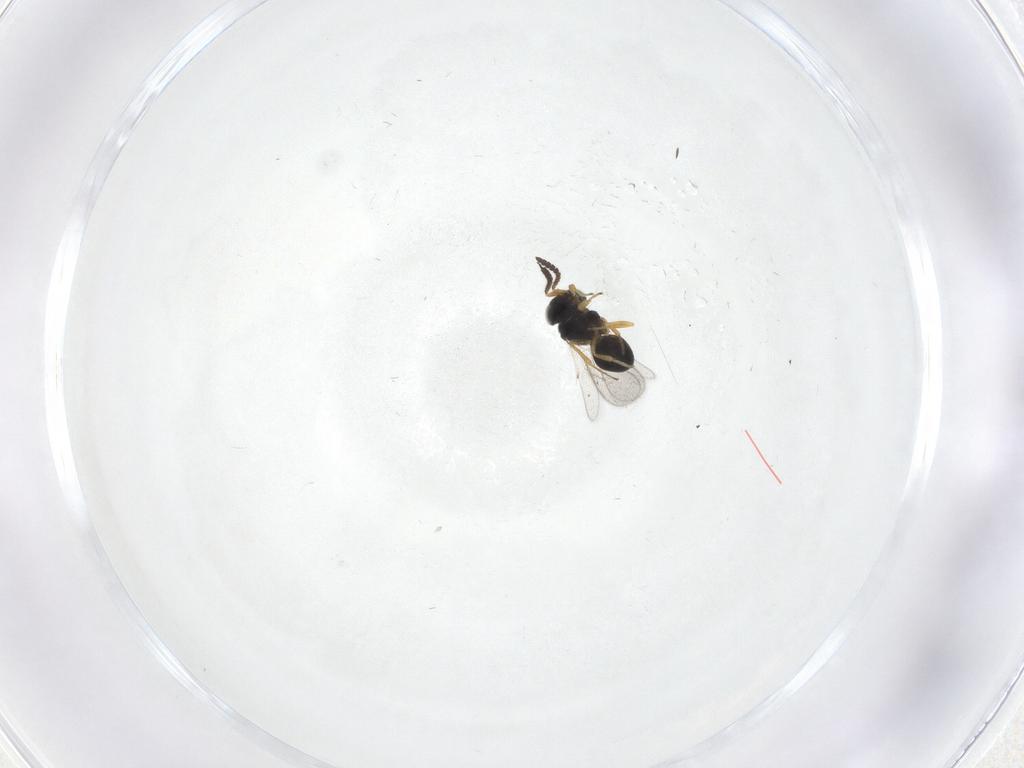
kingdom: Animalia
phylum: Arthropoda
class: Insecta
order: Hymenoptera
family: Scelionidae
